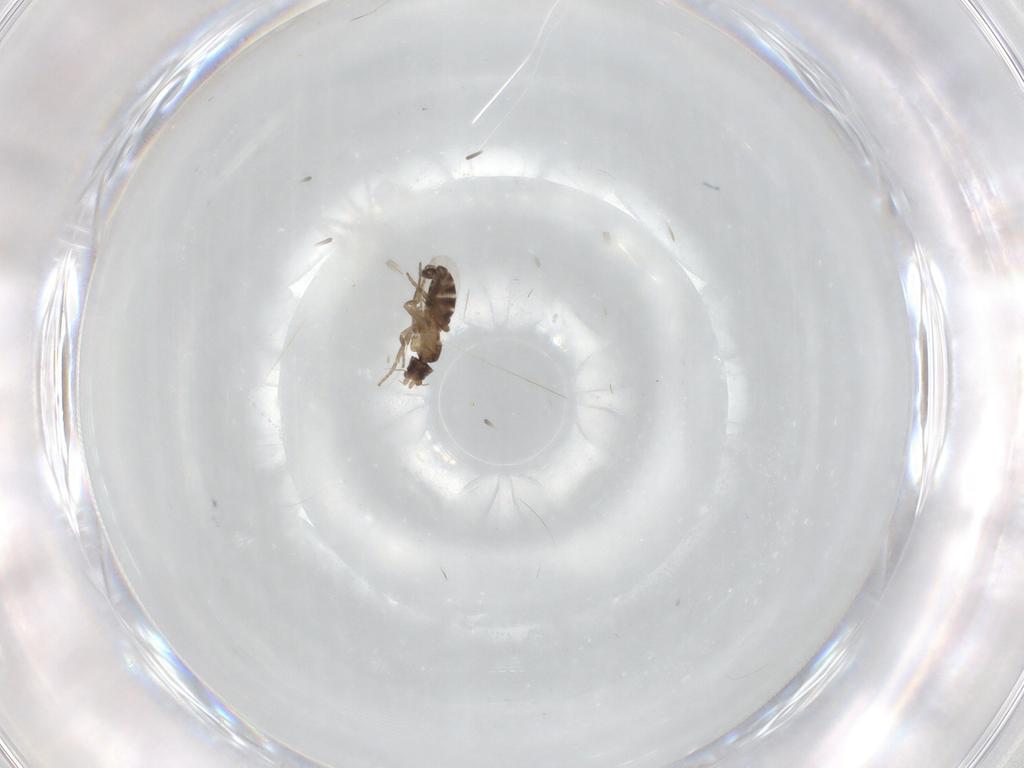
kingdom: Animalia
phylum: Arthropoda
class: Insecta
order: Diptera
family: Phoridae
